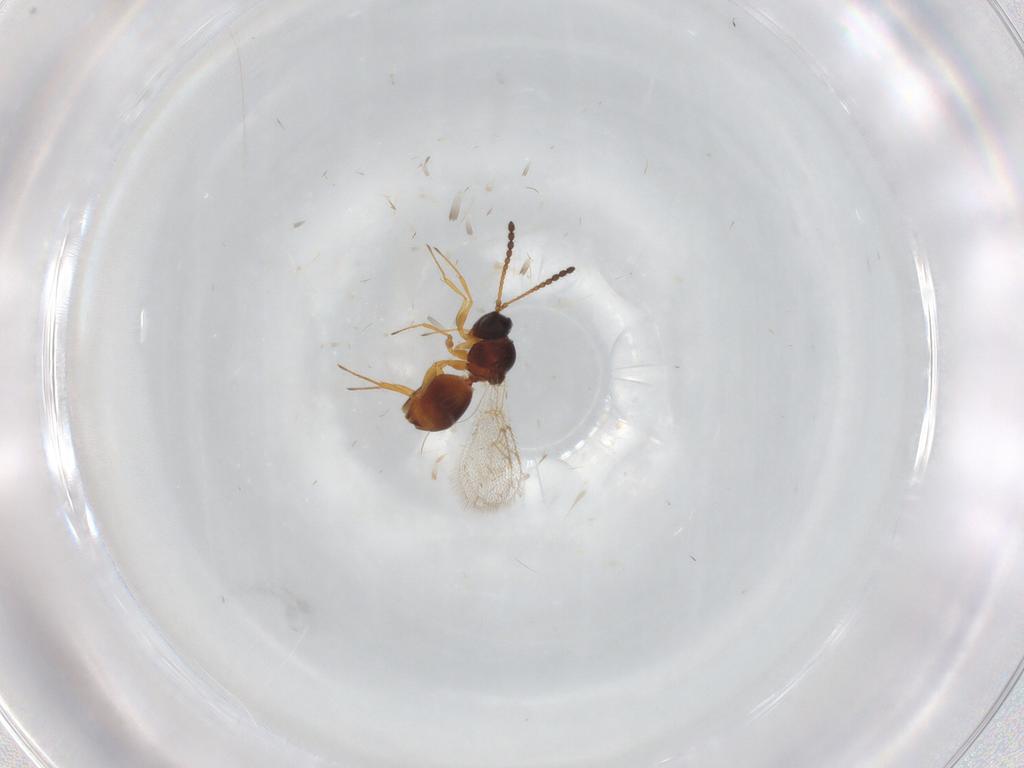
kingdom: Animalia
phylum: Arthropoda
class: Insecta
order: Hymenoptera
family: Figitidae
